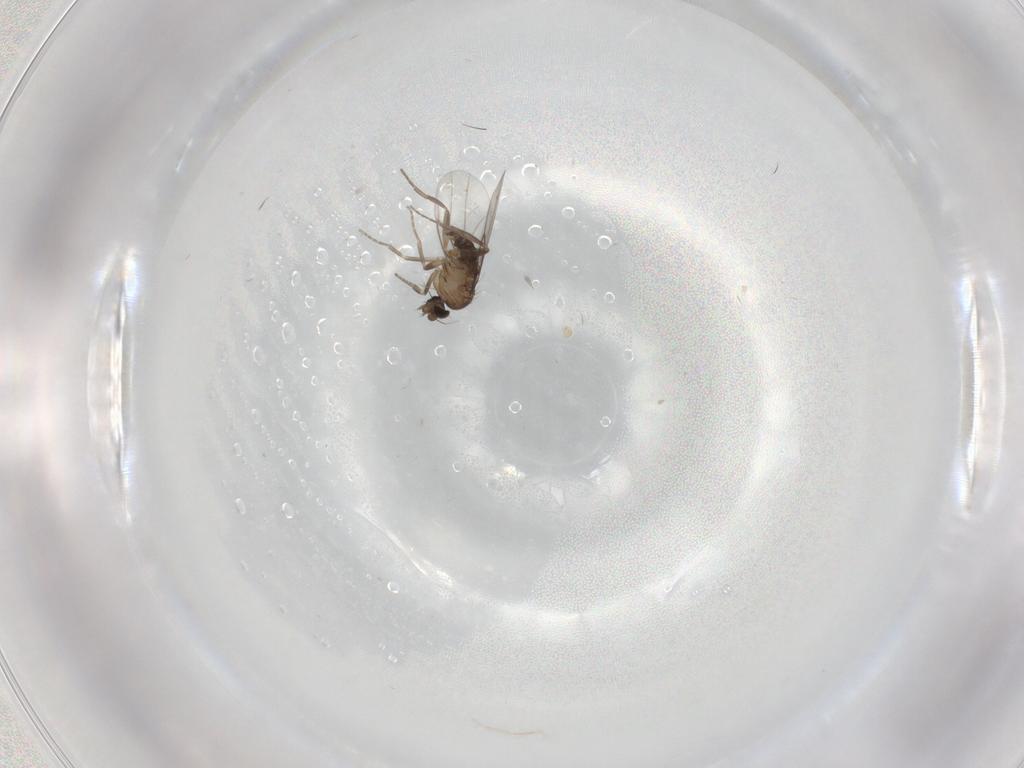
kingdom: Animalia
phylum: Arthropoda
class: Insecta
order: Diptera
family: Cecidomyiidae
